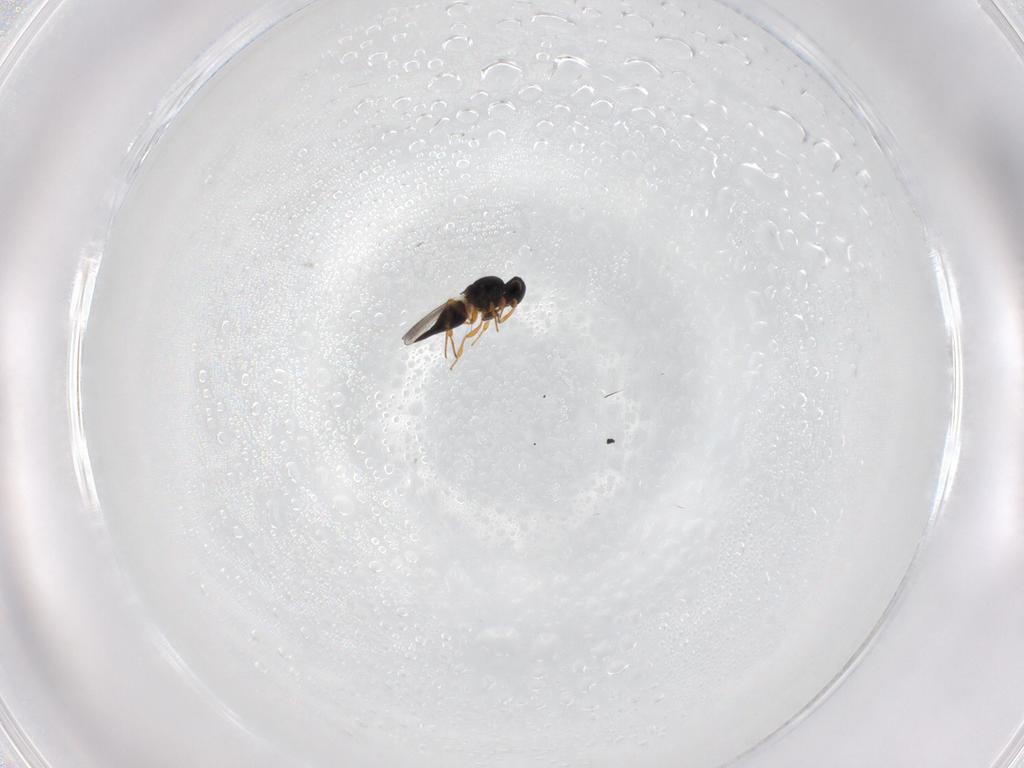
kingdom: Animalia
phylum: Arthropoda
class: Insecta
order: Hymenoptera
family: Platygastridae
